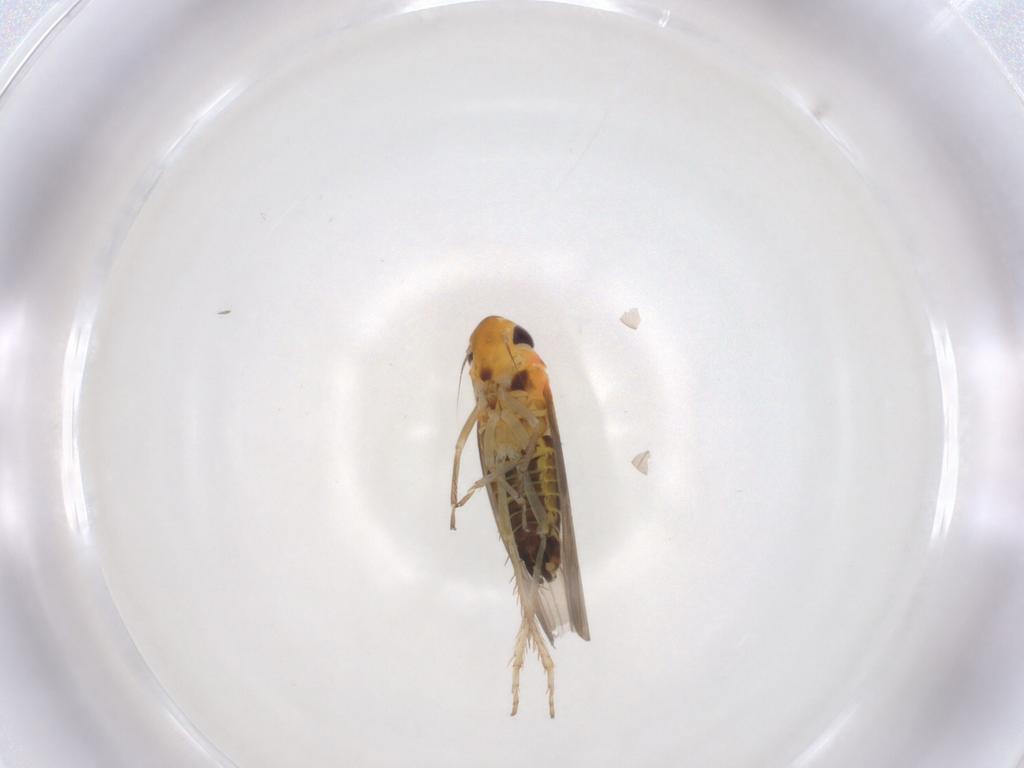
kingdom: Animalia
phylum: Arthropoda
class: Insecta
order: Hemiptera
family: Cicadellidae
